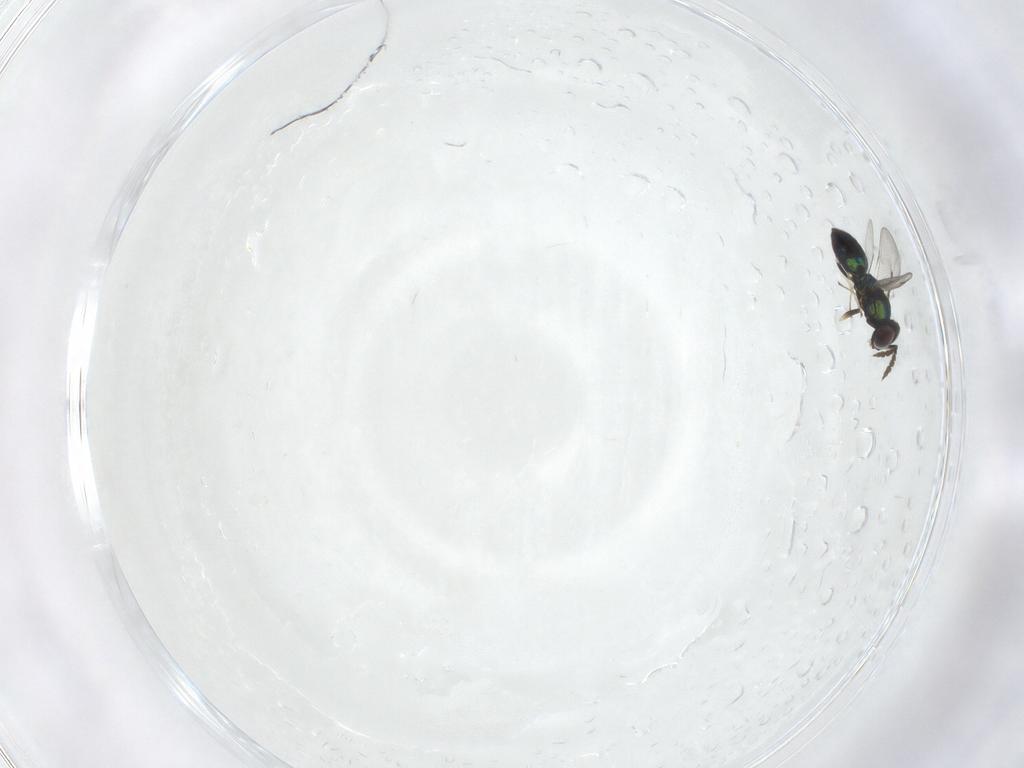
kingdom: Animalia
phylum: Arthropoda
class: Insecta
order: Hymenoptera
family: Eulophidae
